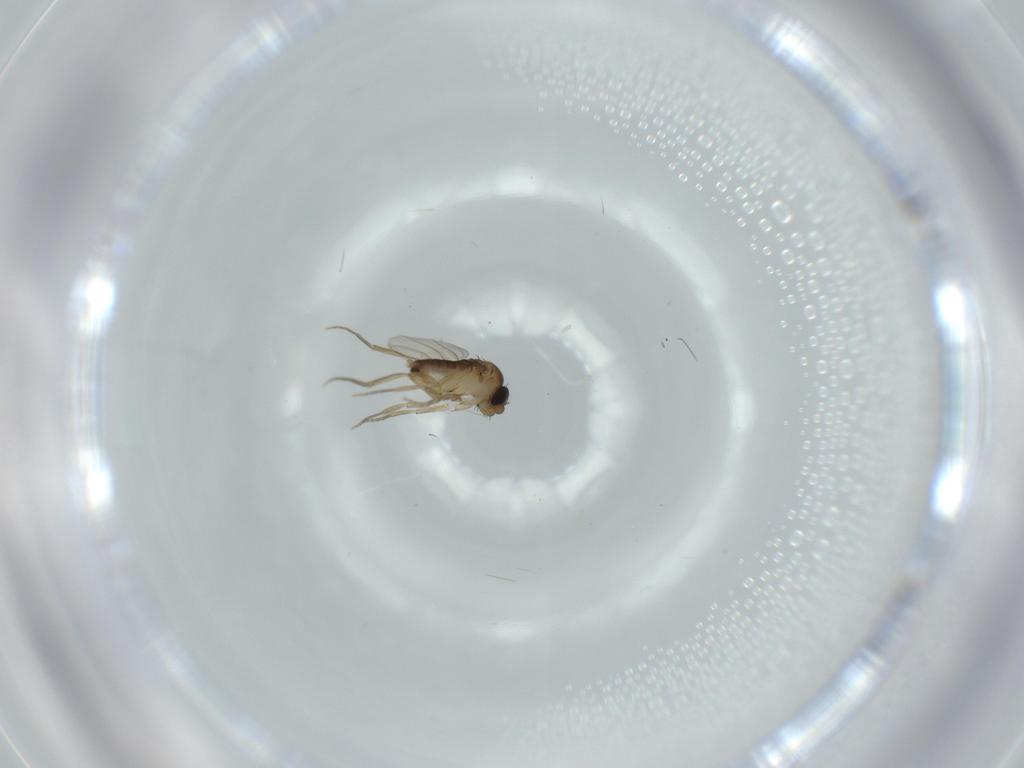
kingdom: Animalia
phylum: Arthropoda
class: Insecta
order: Diptera
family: Phoridae
